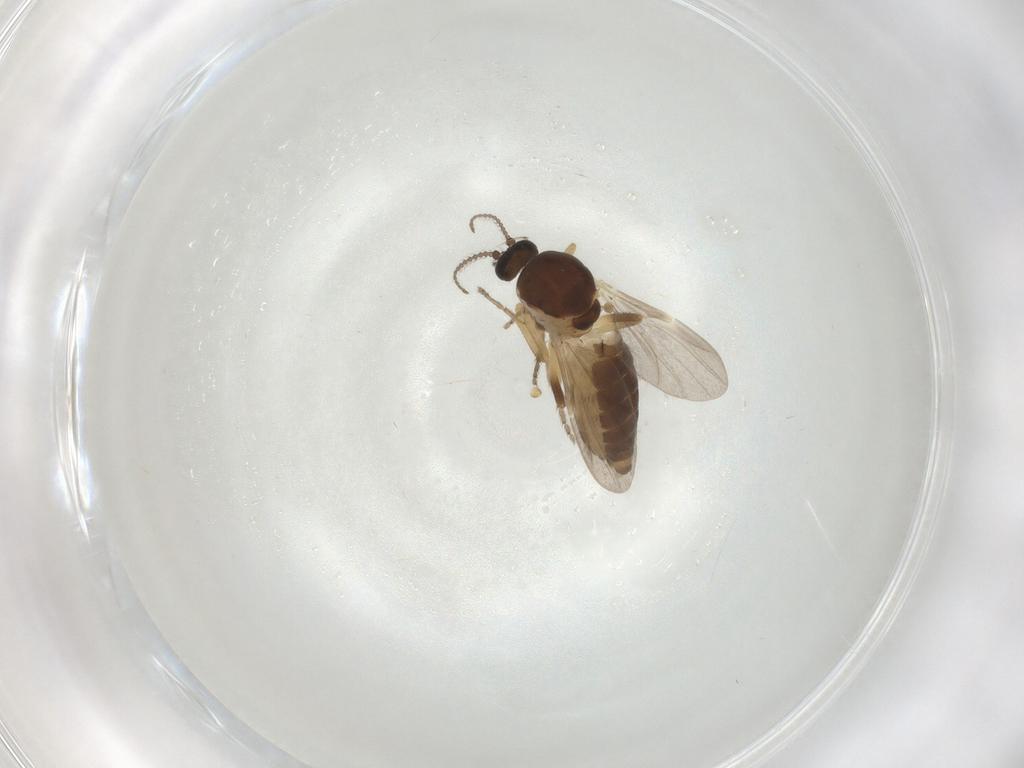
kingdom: Animalia
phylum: Arthropoda
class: Insecta
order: Diptera
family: Ceratopogonidae
